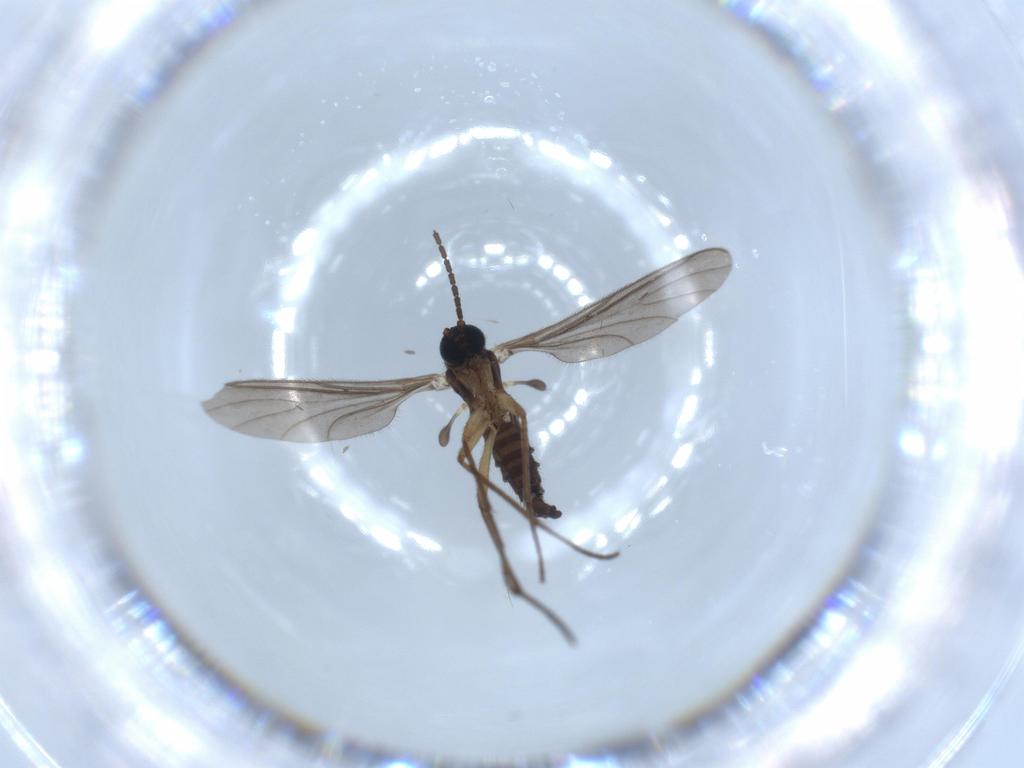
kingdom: Animalia
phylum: Arthropoda
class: Insecta
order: Diptera
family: Sciaridae
